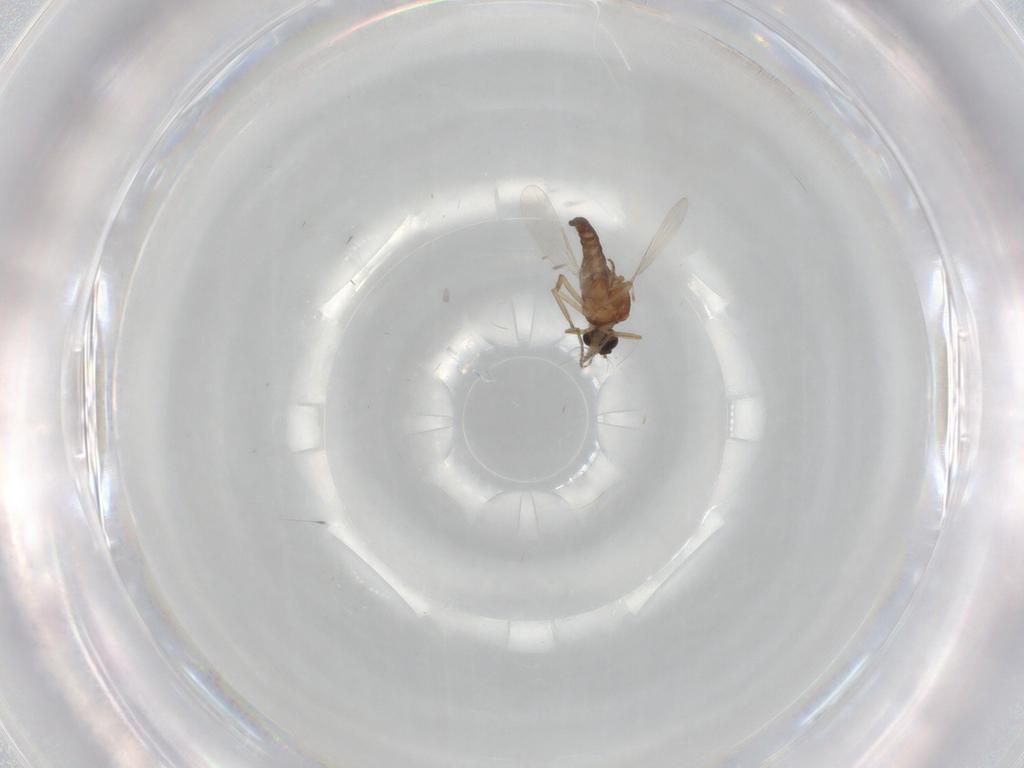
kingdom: Animalia
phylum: Arthropoda
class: Insecta
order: Diptera
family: Ceratopogonidae
